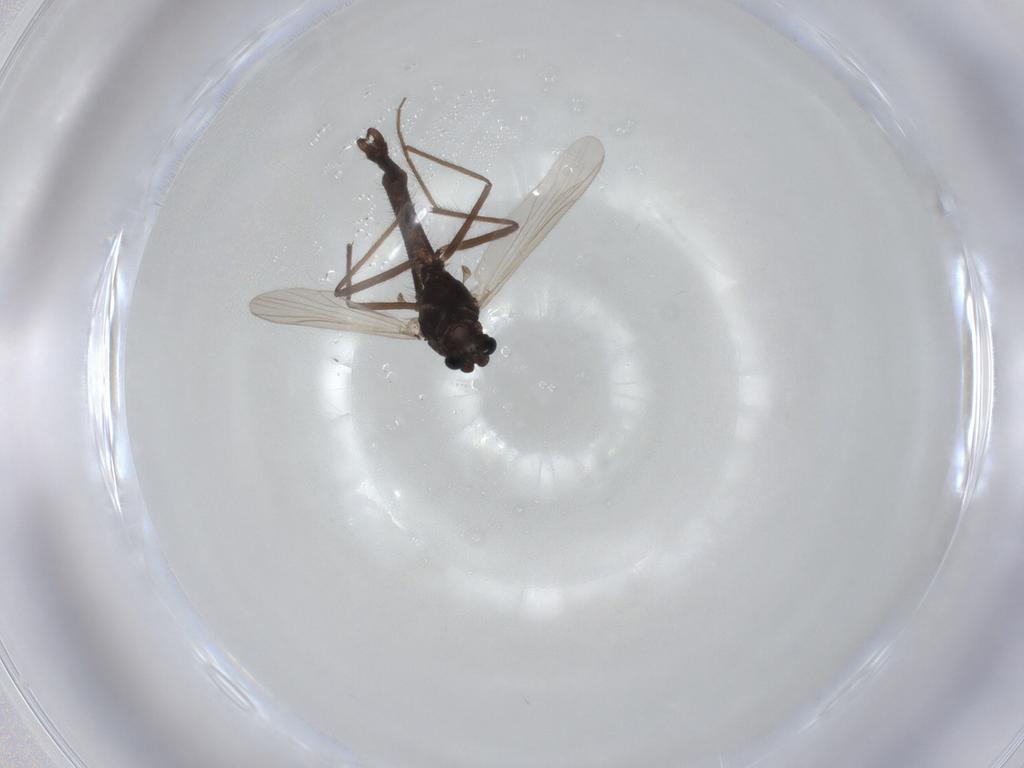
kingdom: Animalia
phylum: Arthropoda
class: Insecta
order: Diptera
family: Chironomidae
